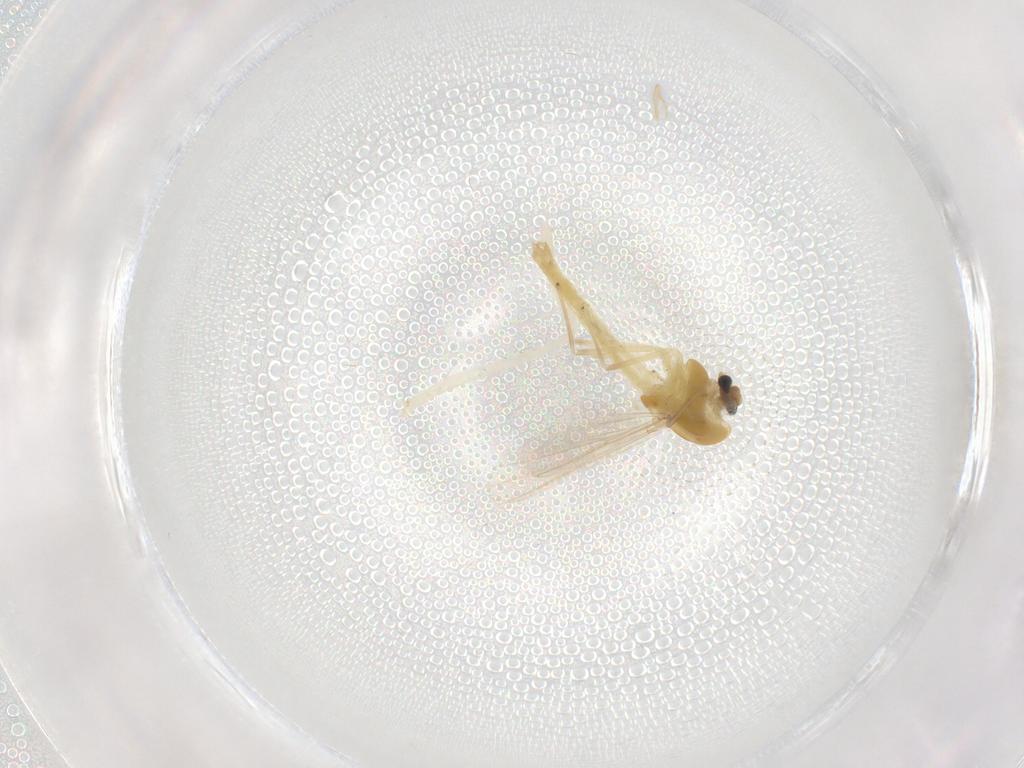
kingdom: Animalia
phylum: Arthropoda
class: Insecta
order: Diptera
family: Chironomidae
